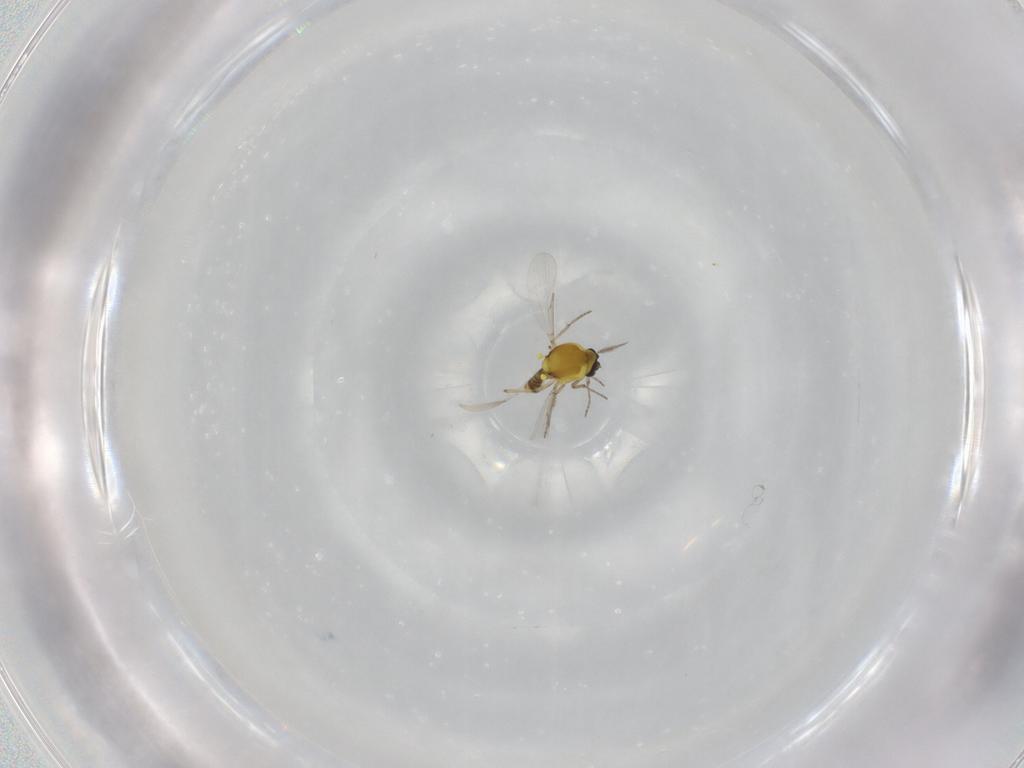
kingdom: Animalia
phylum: Arthropoda
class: Insecta
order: Diptera
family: Ceratopogonidae
